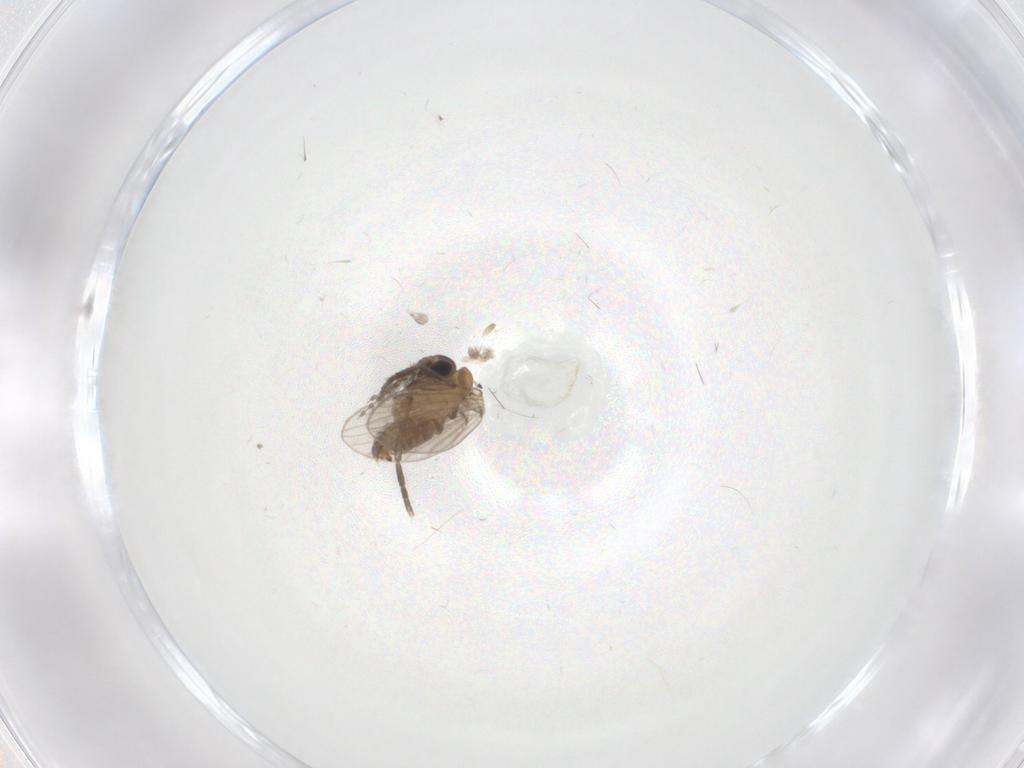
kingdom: Animalia
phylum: Arthropoda
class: Insecta
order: Diptera
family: Psychodidae
